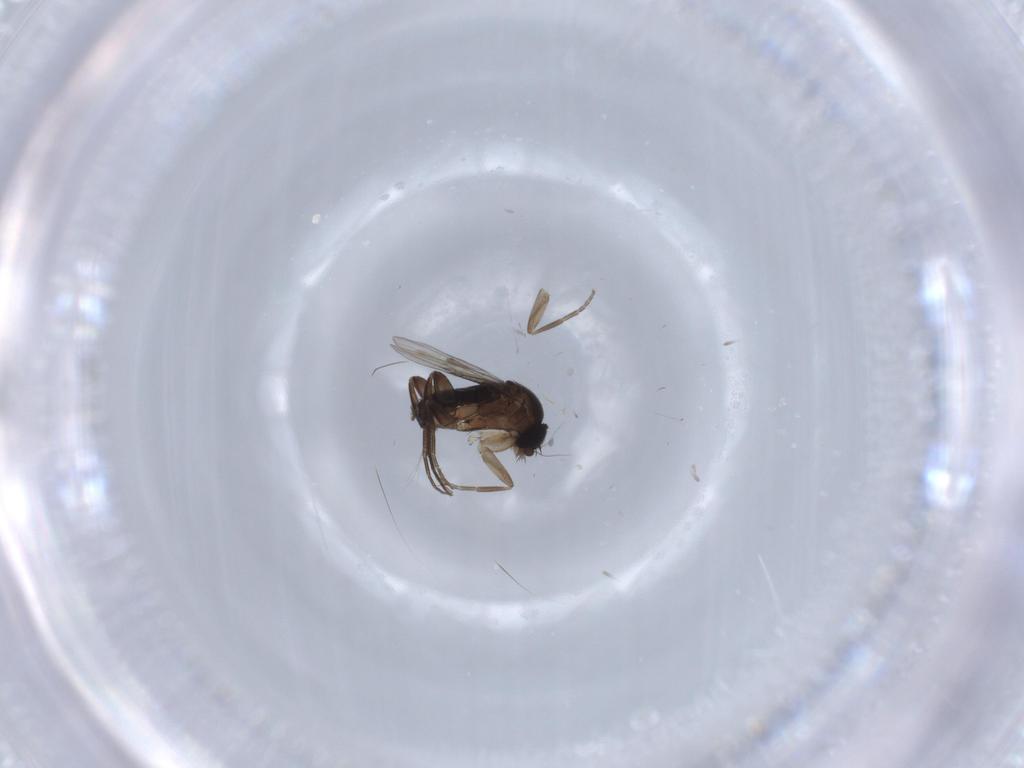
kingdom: Animalia
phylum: Arthropoda
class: Insecta
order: Diptera
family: Phoridae
